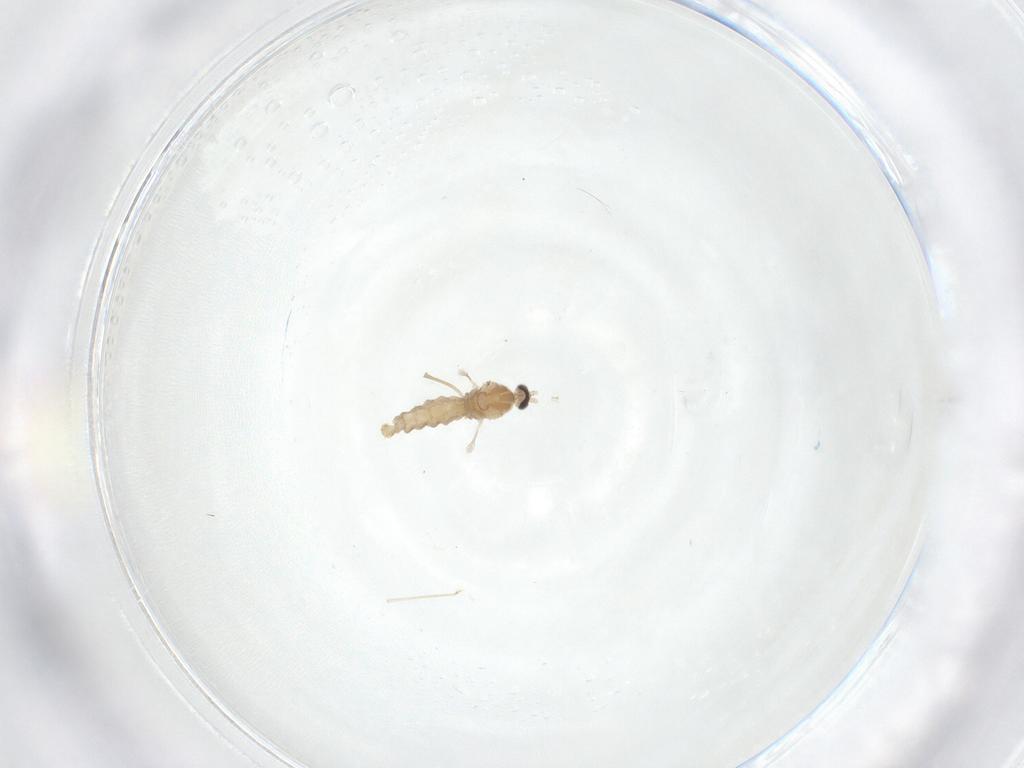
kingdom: Animalia
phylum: Arthropoda
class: Insecta
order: Diptera
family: Cecidomyiidae
